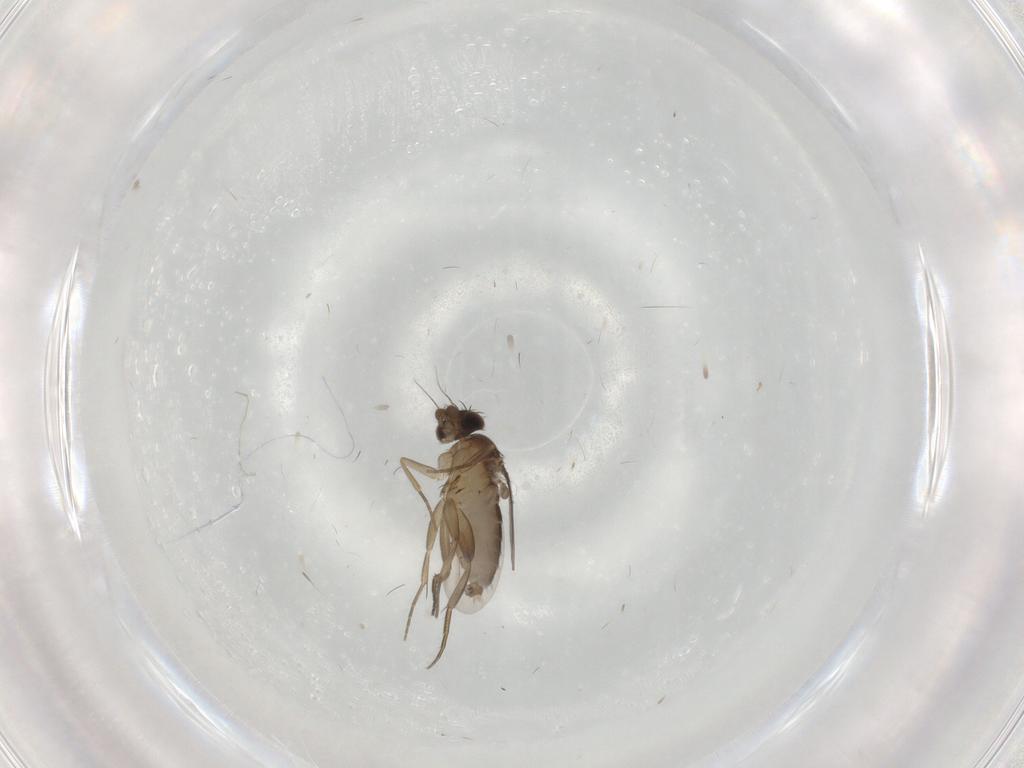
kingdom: Animalia
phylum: Arthropoda
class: Insecta
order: Diptera
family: Phoridae
